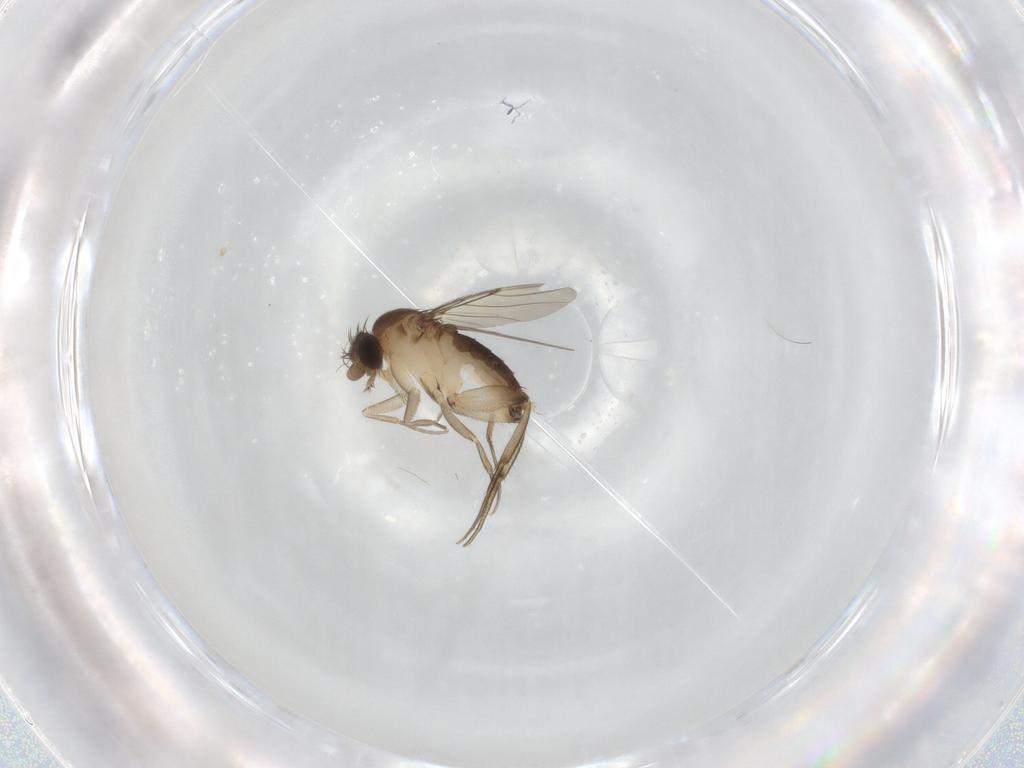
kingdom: Animalia
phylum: Arthropoda
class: Insecta
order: Diptera
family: Phoridae
